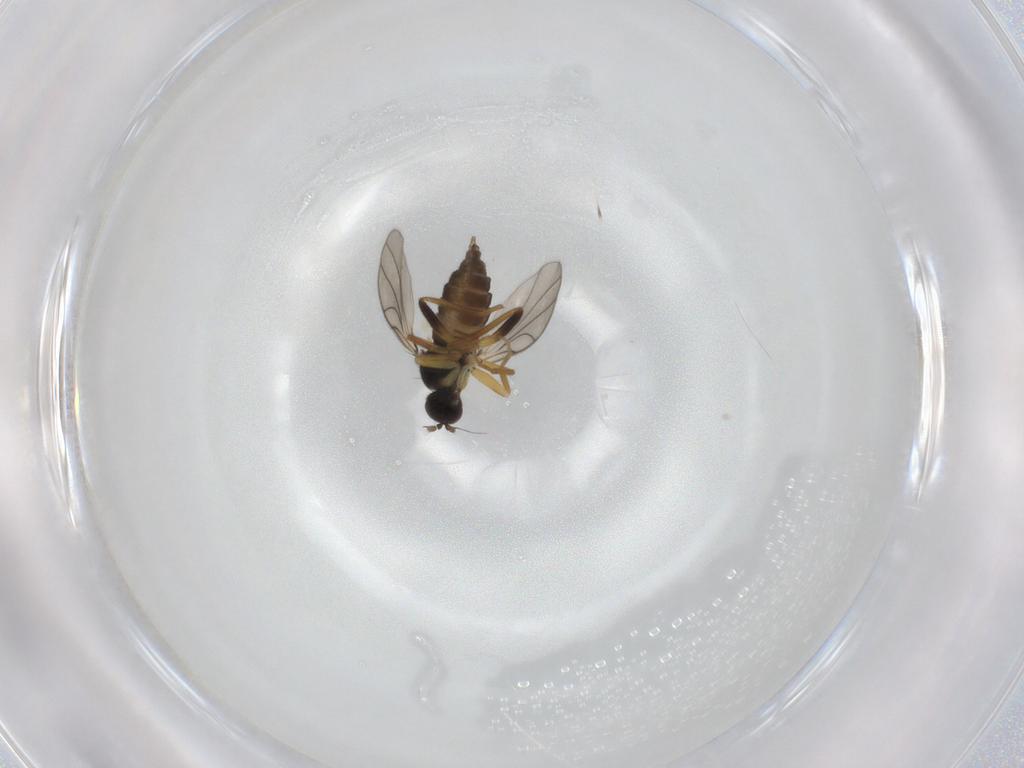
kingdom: Animalia
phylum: Arthropoda
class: Insecta
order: Diptera
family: Hybotidae
